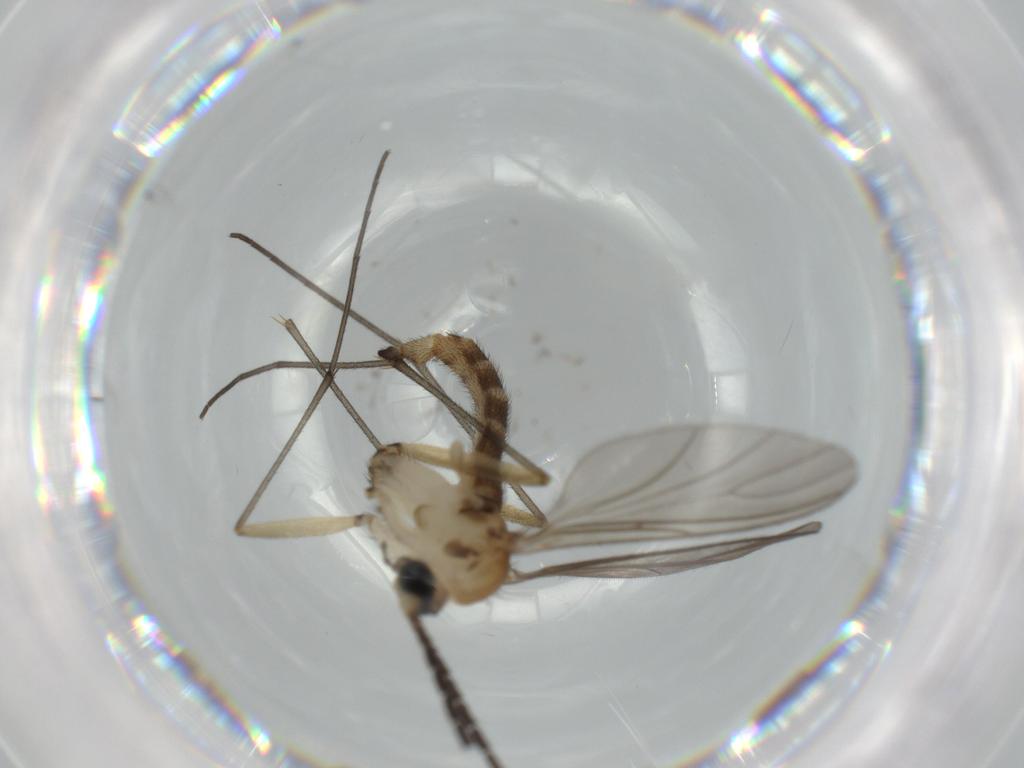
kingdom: Animalia
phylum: Arthropoda
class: Insecta
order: Diptera
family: Sciaridae
